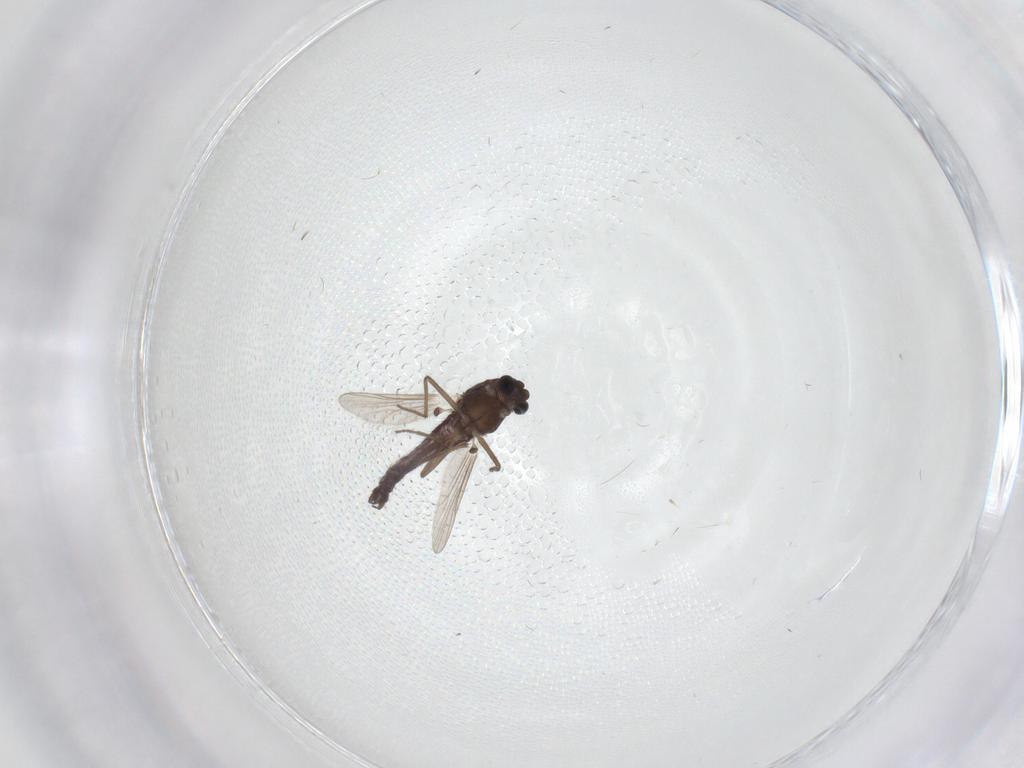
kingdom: Animalia
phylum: Arthropoda
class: Insecta
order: Diptera
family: Chironomidae
